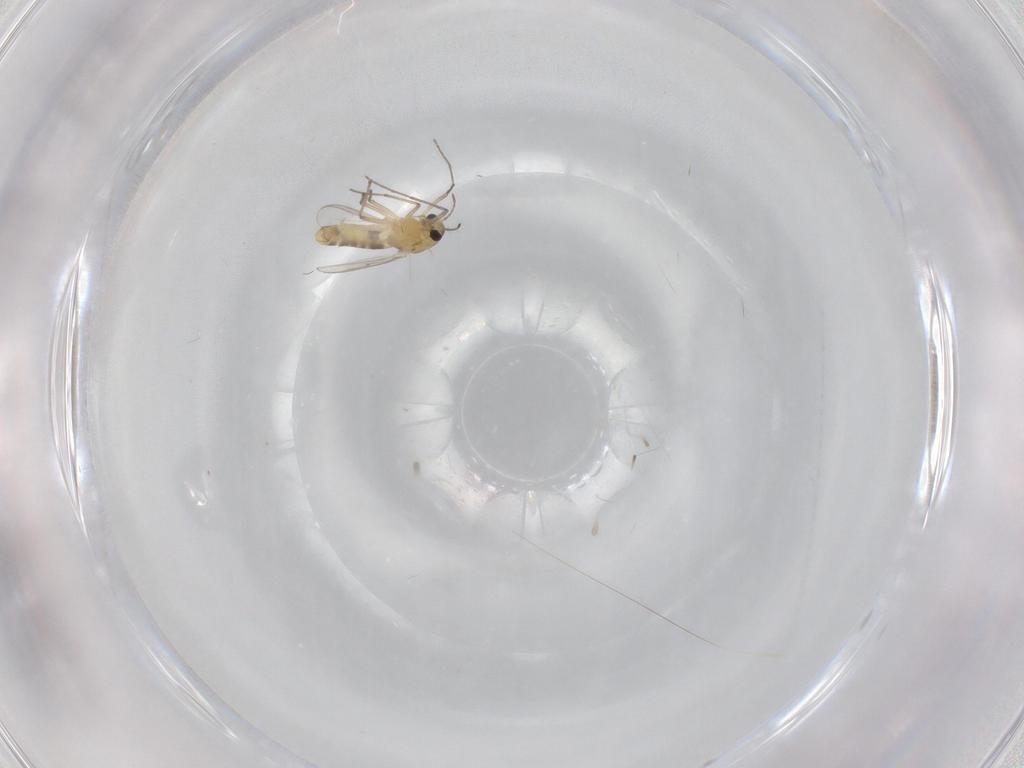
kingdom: Animalia
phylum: Arthropoda
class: Insecta
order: Diptera
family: Chironomidae
